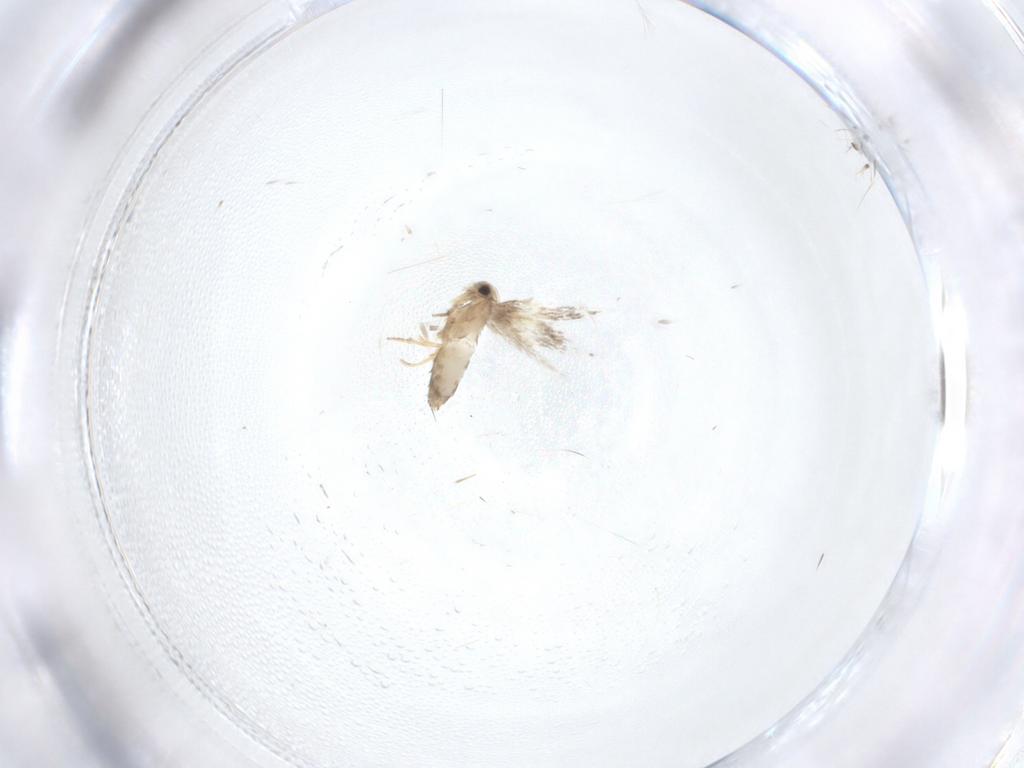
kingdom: Animalia
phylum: Arthropoda
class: Insecta
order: Lepidoptera
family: Nepticulidae
